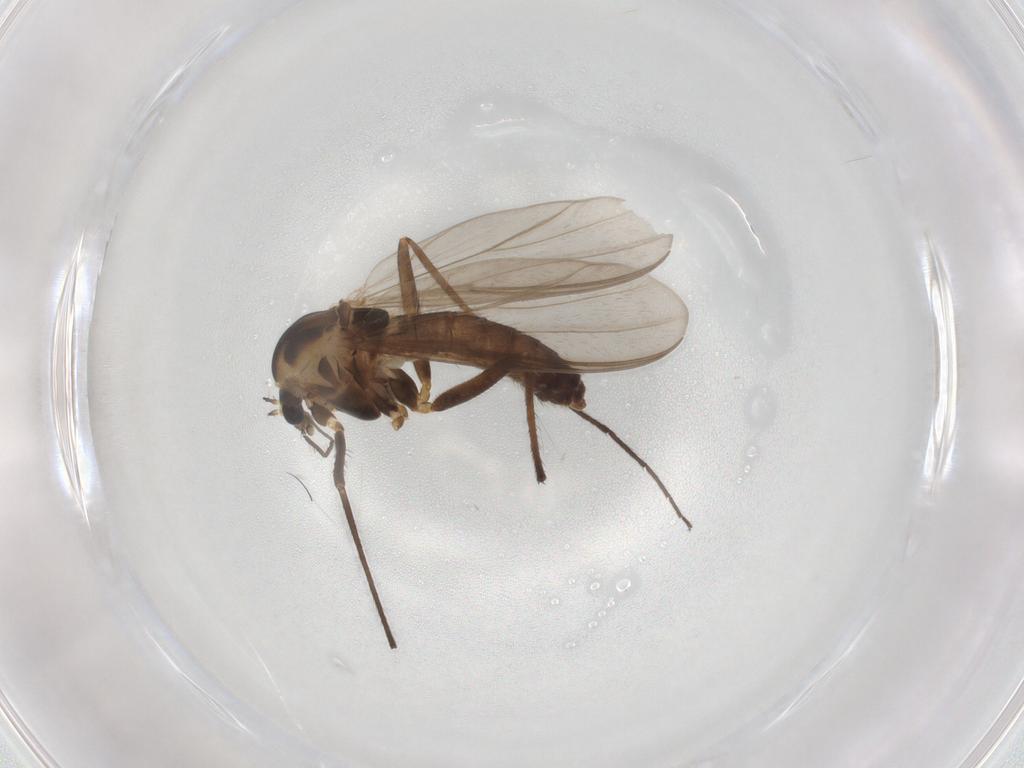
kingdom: Animalia
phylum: Arthropoda
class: Insecta
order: Diptera
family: Chironomidae
